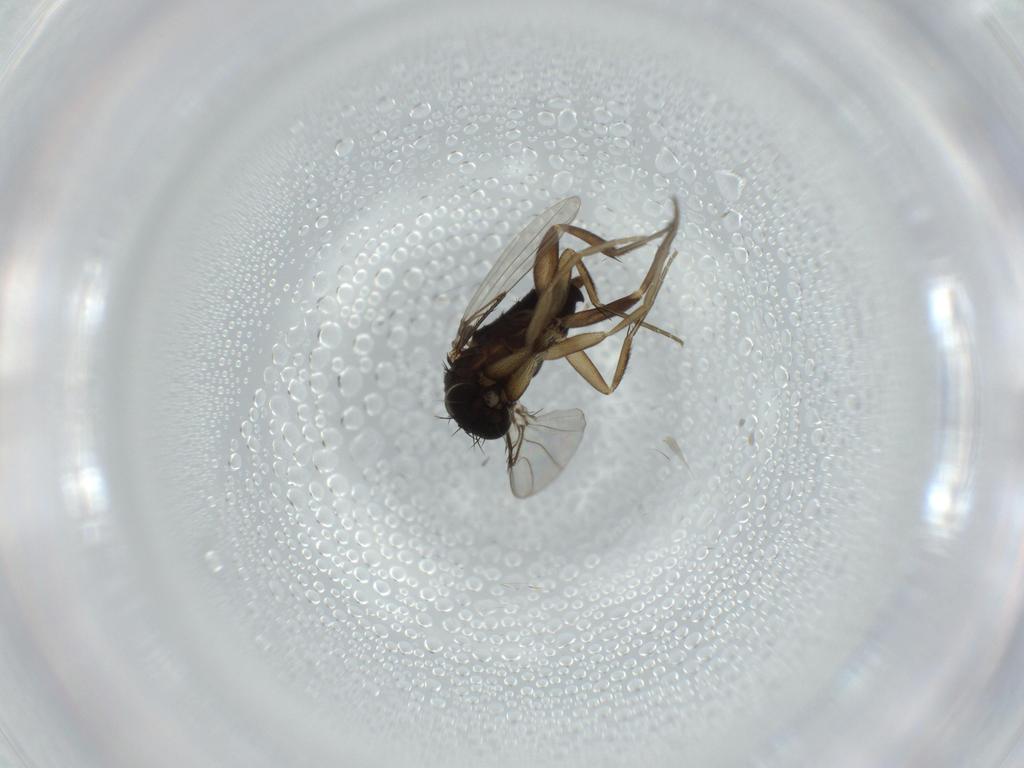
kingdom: Animalia
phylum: Arthropoda
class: Insecta
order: Diptera
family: Phoridae
